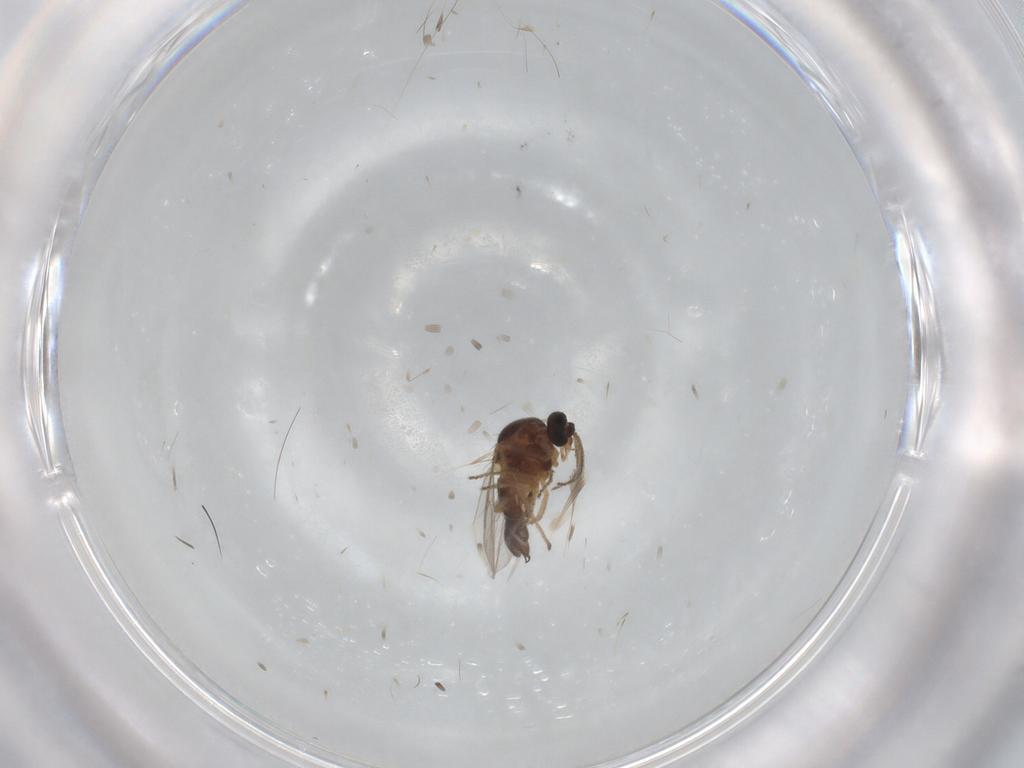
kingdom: Animalia
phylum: Arthropoda
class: Insecta
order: Diptera
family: Ceratopogonidae
